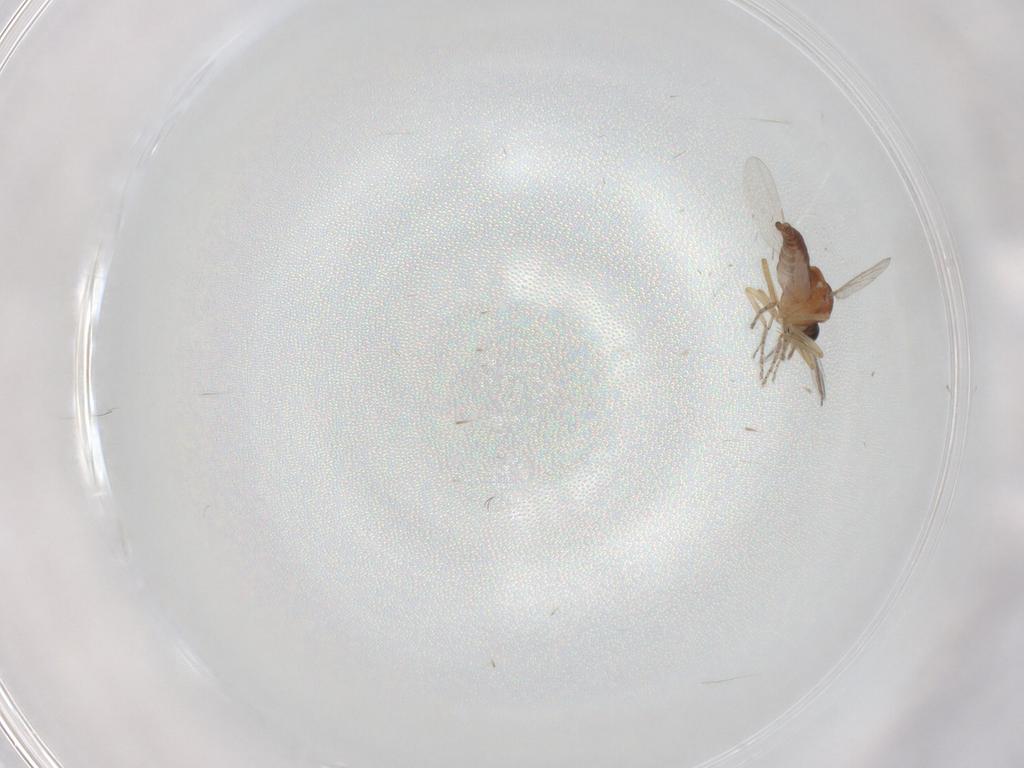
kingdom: Animalia
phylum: Arthropoda
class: Insecta
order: Diptera
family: Ceratopogonidae
